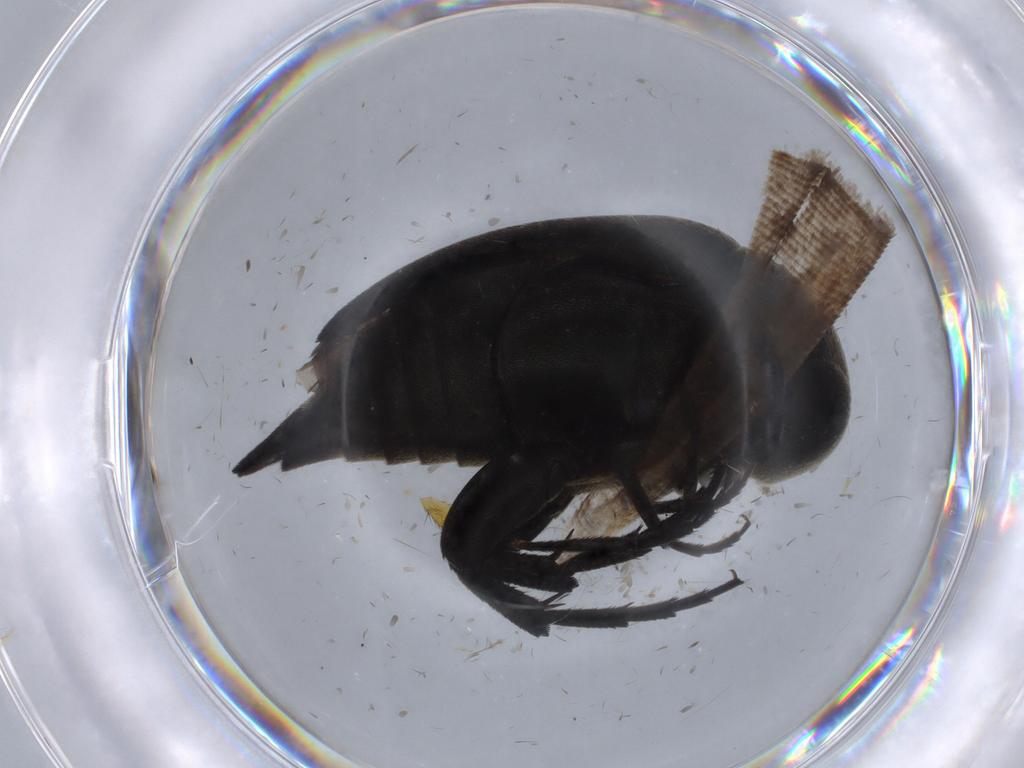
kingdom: Animalia
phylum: Arthropoda
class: Insecta
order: Coleoptera
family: Mordellidae
